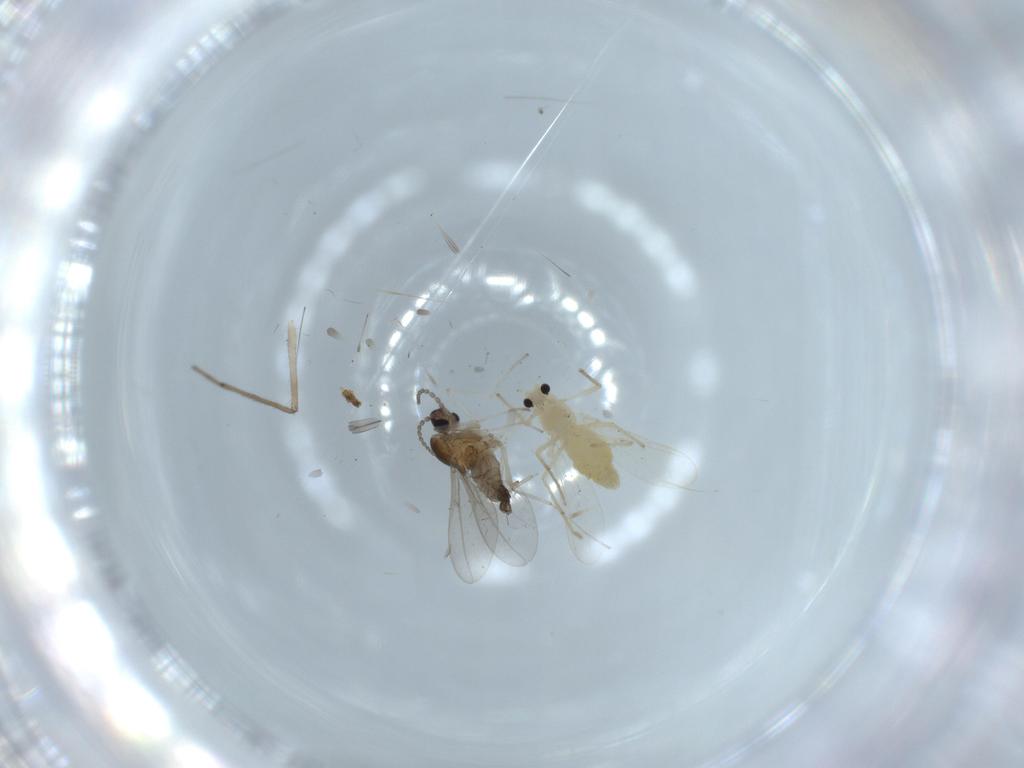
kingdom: Animalia
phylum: Arthropoda
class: Insecta
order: Diptera
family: Chironomidae
